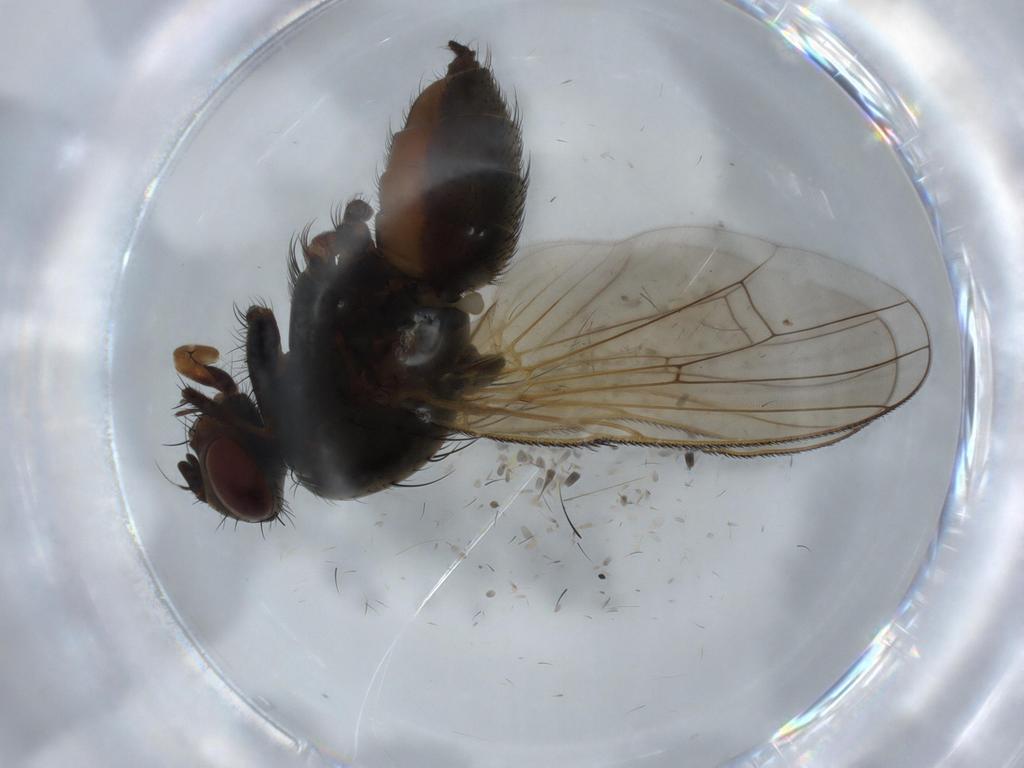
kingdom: Animalia
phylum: Arthropoda
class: Insecta
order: Diptera
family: Anthomyiidae
